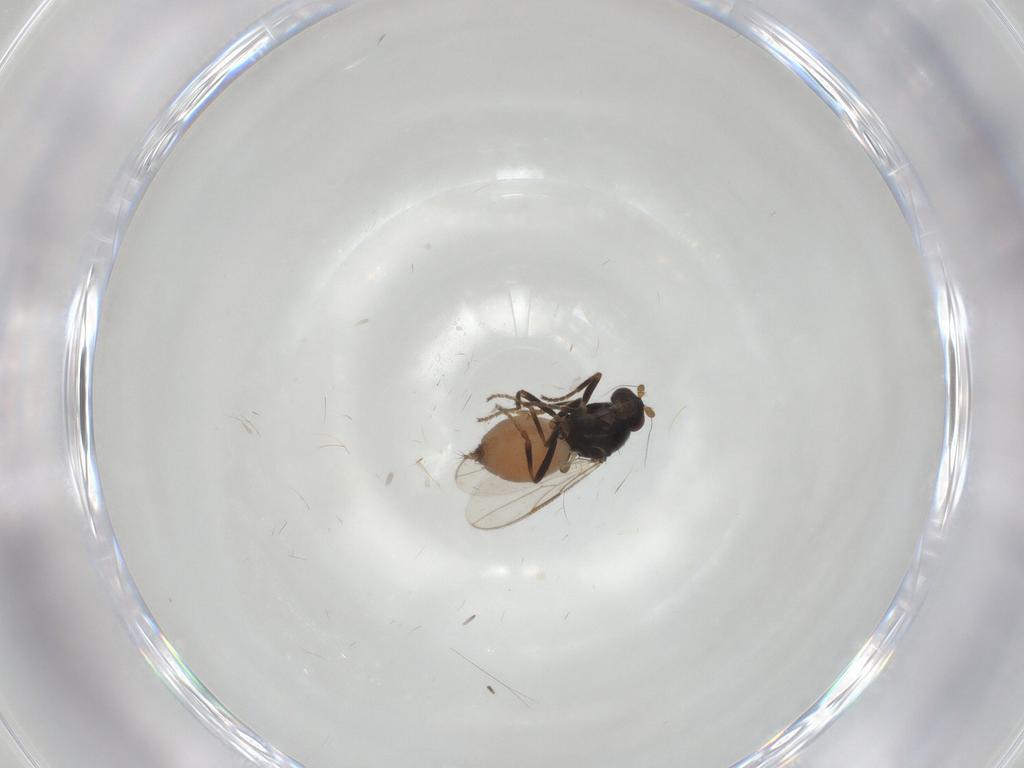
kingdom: Animalia
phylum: Arthropoda
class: Insecta
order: Diptera
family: Sphaeroceridae
